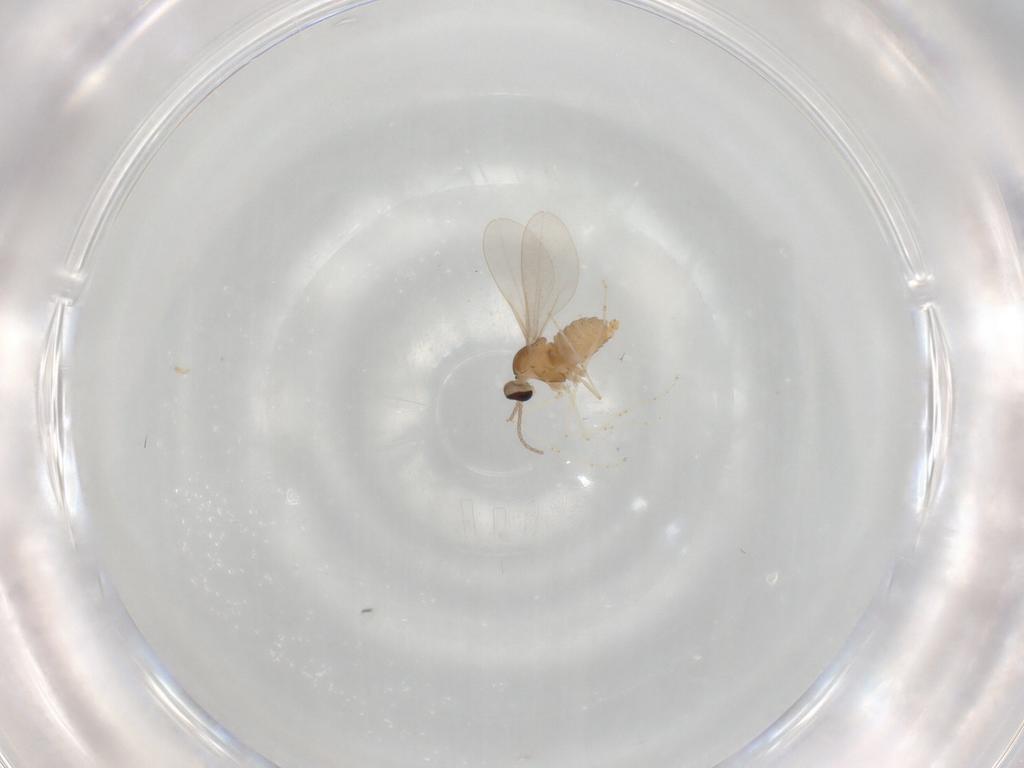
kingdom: Animalia
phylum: Arthropoda
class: Insecta
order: Diptera
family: Cecidomyiidae
